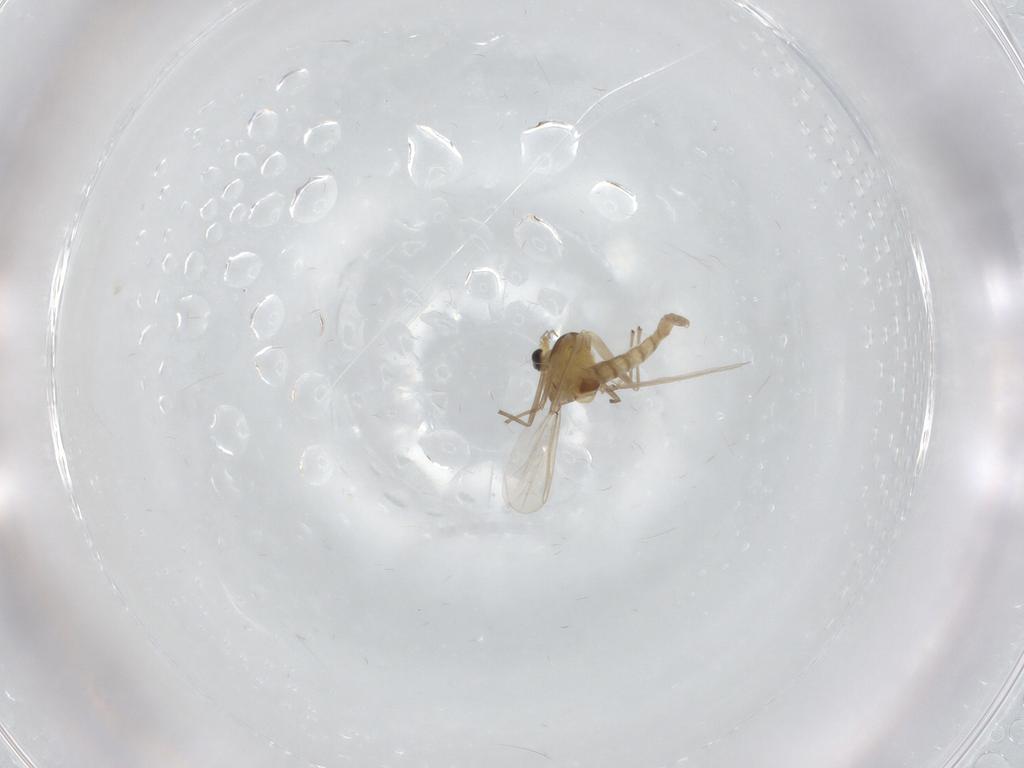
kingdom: Animalia
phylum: Arthropoda
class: Insecta
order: Diptera
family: Chironomidae
